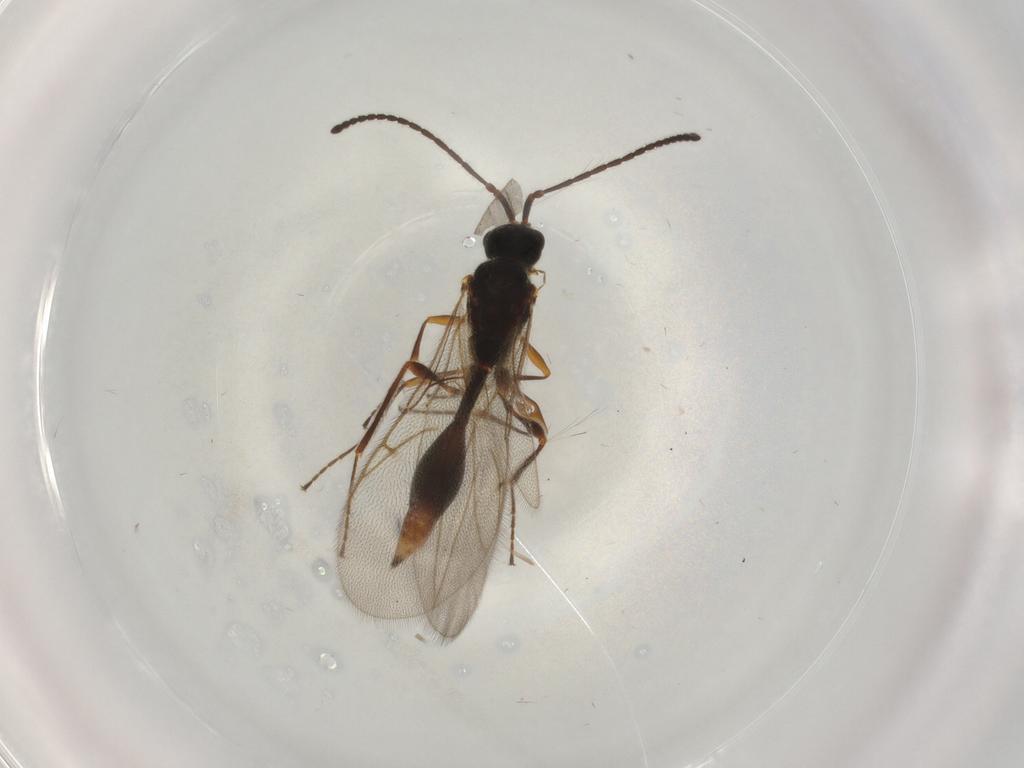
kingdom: Animalia
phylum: Arthropoda
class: Insecta
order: Hymenoptera
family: Diapriidae
